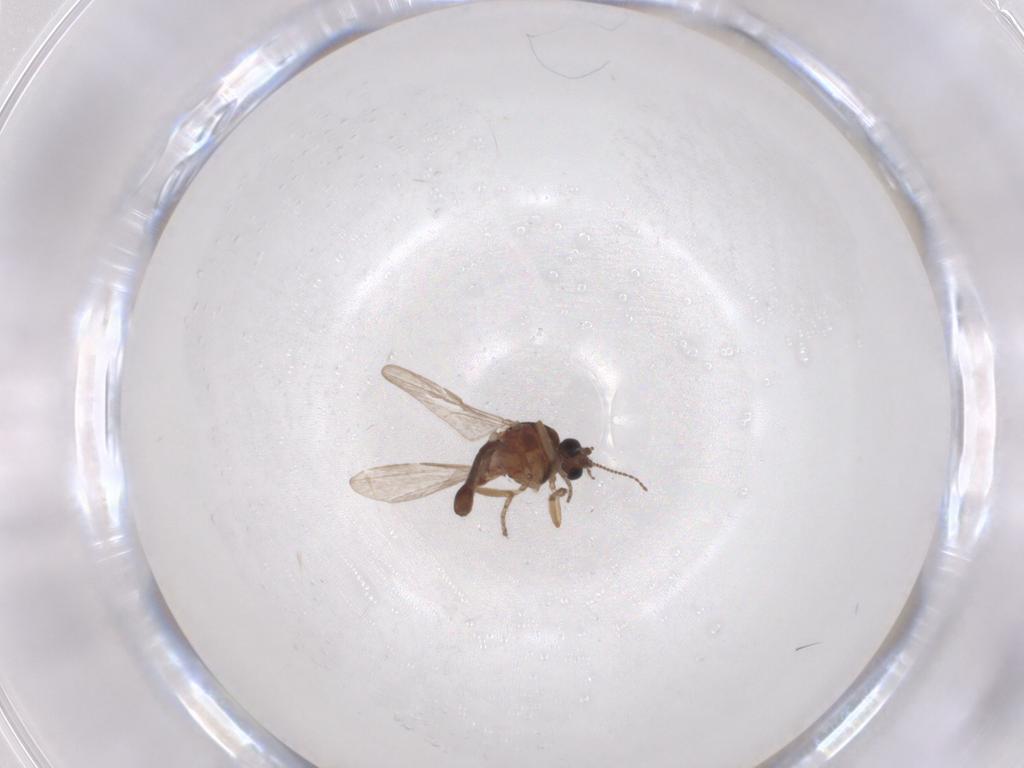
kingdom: Animalia
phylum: Arthropoda
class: Insecta
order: Diptera
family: Ceratopogonidae
